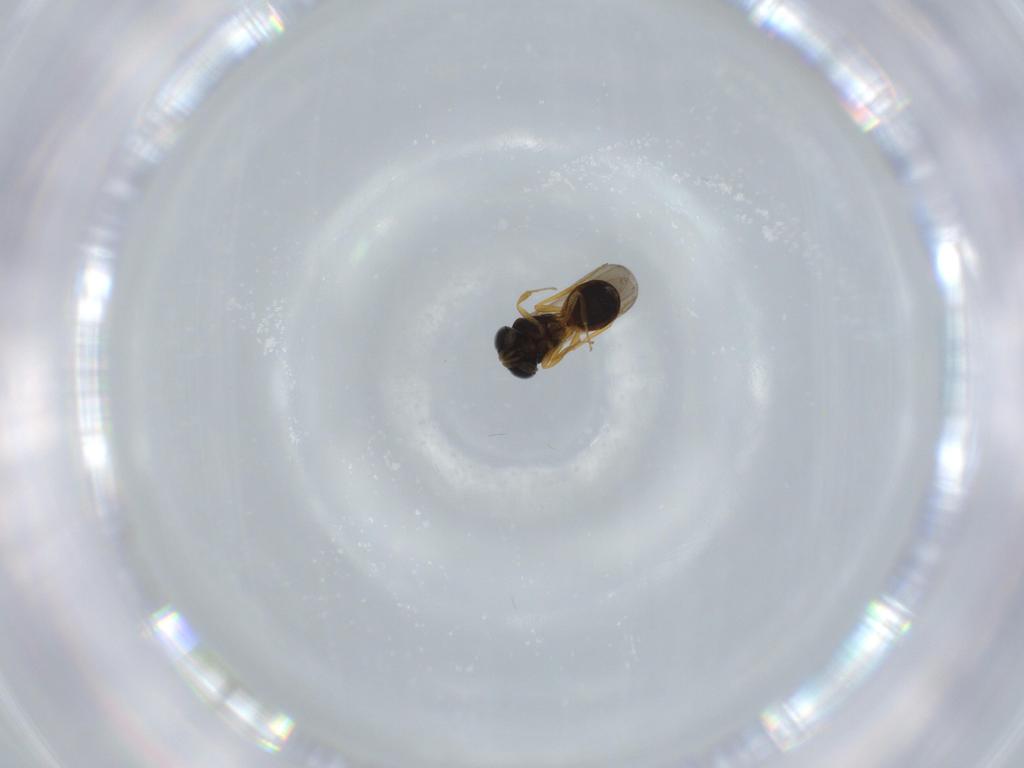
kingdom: Animalia
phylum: Arthropoda
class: Insecta
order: Hymenoptera
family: Scelionidae
